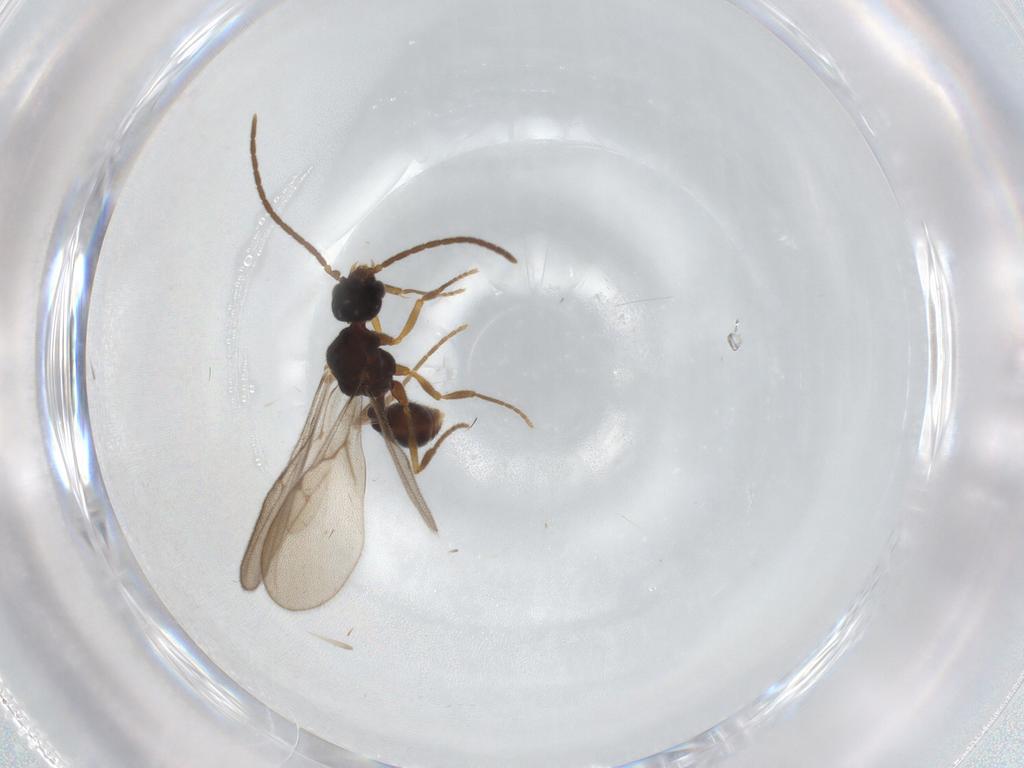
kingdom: Animalia
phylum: Arthropoda
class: Insecta
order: Hymenoptera
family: Formicidae
